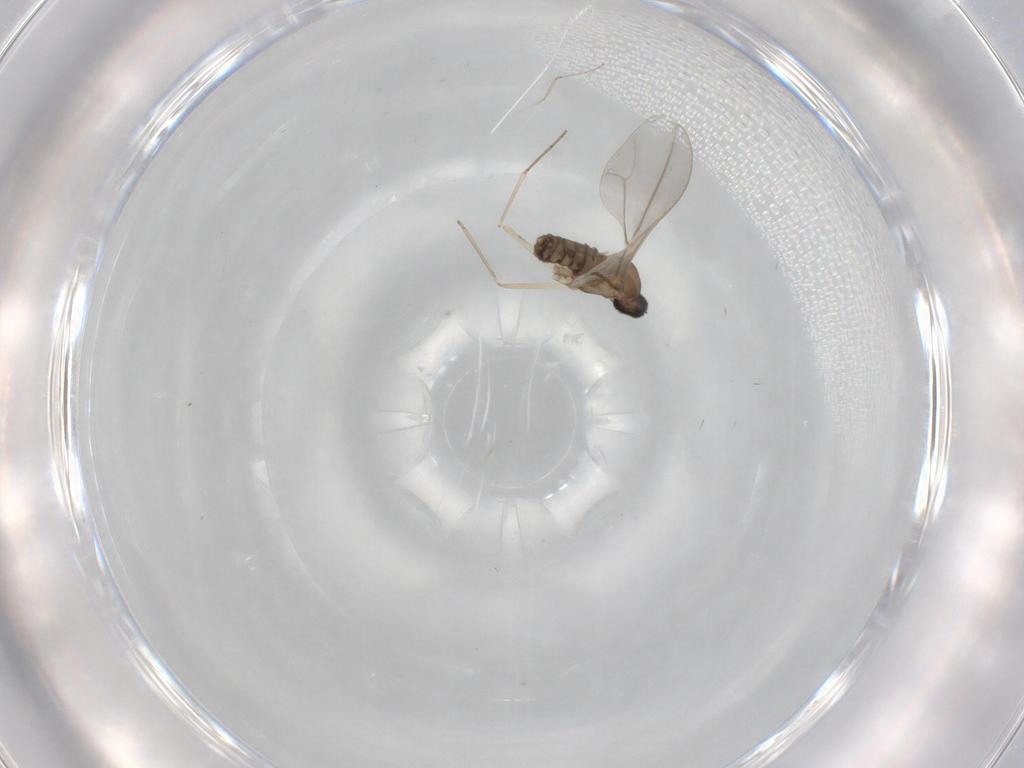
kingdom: Animalia
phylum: Arthropoda
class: Insecta
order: Diptera
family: Cecidomyiidae
